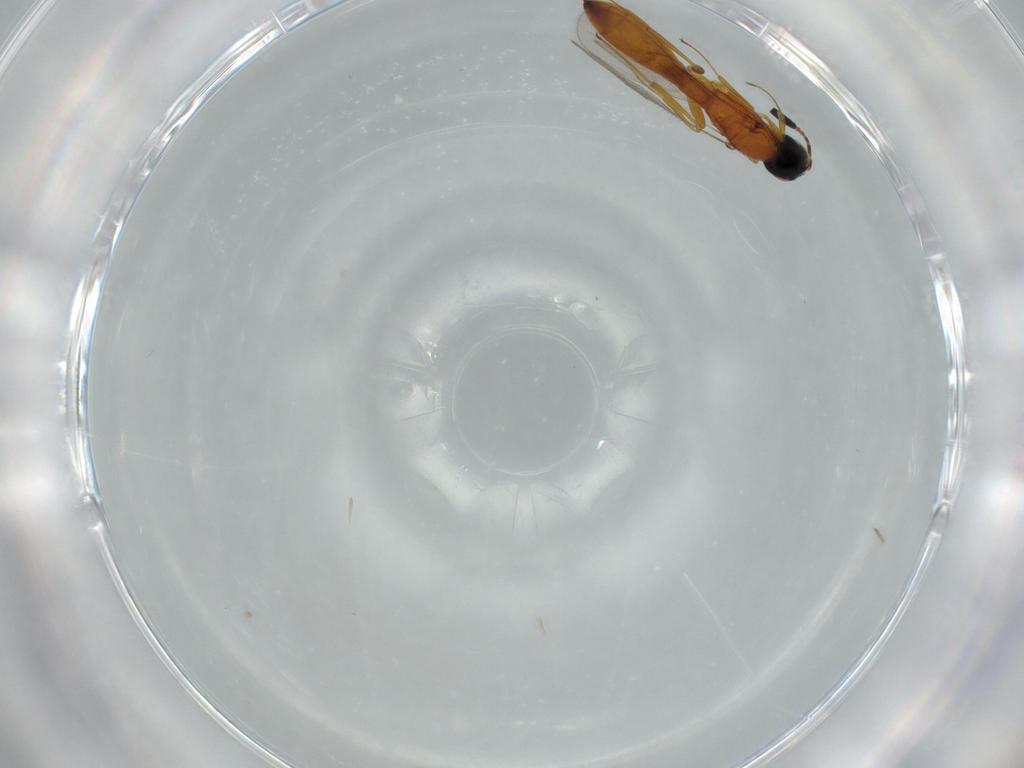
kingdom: Animalia
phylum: Arthropoda
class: Insecta
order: Hymenoptera
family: Scelionidae
